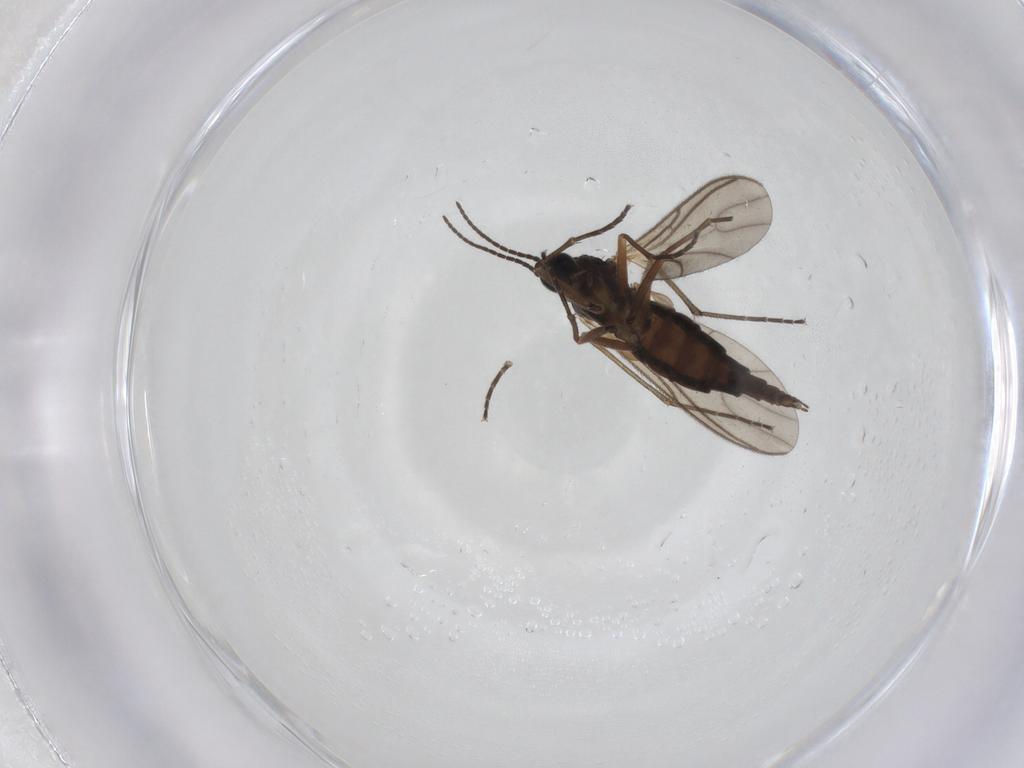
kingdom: Animalia
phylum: Arthropoda
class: Insecta
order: Diptera
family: Sciaridae
